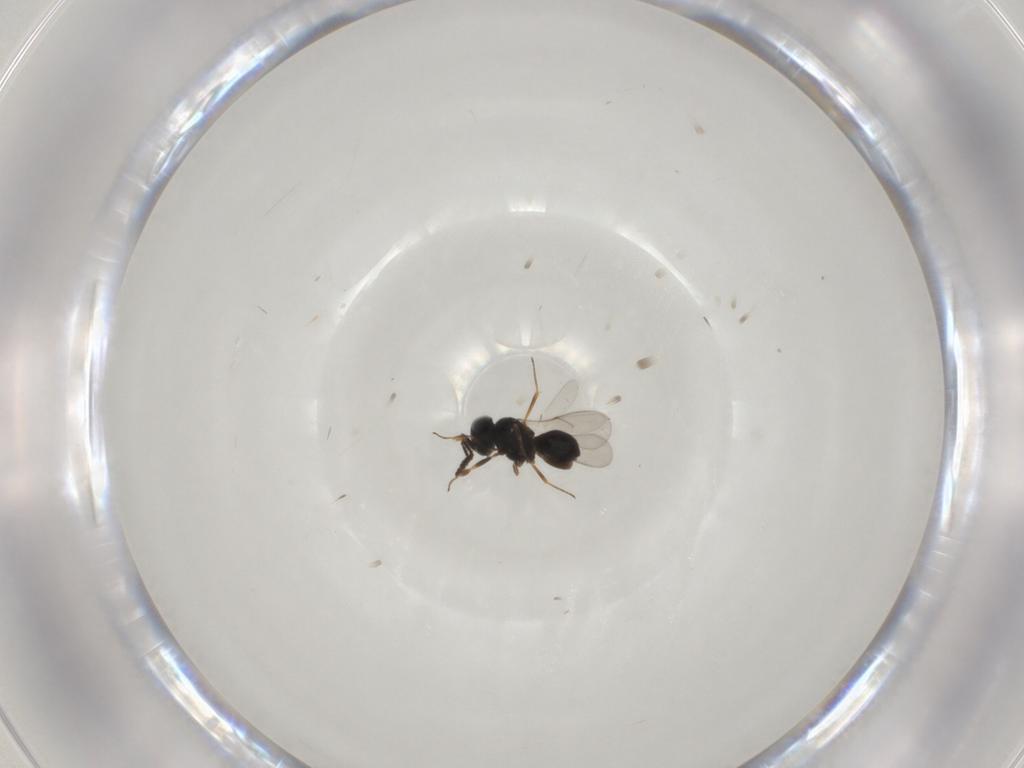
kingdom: Animalia
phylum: Arthropoda
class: Insecta
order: Hymenoptera
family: Scelionidae
